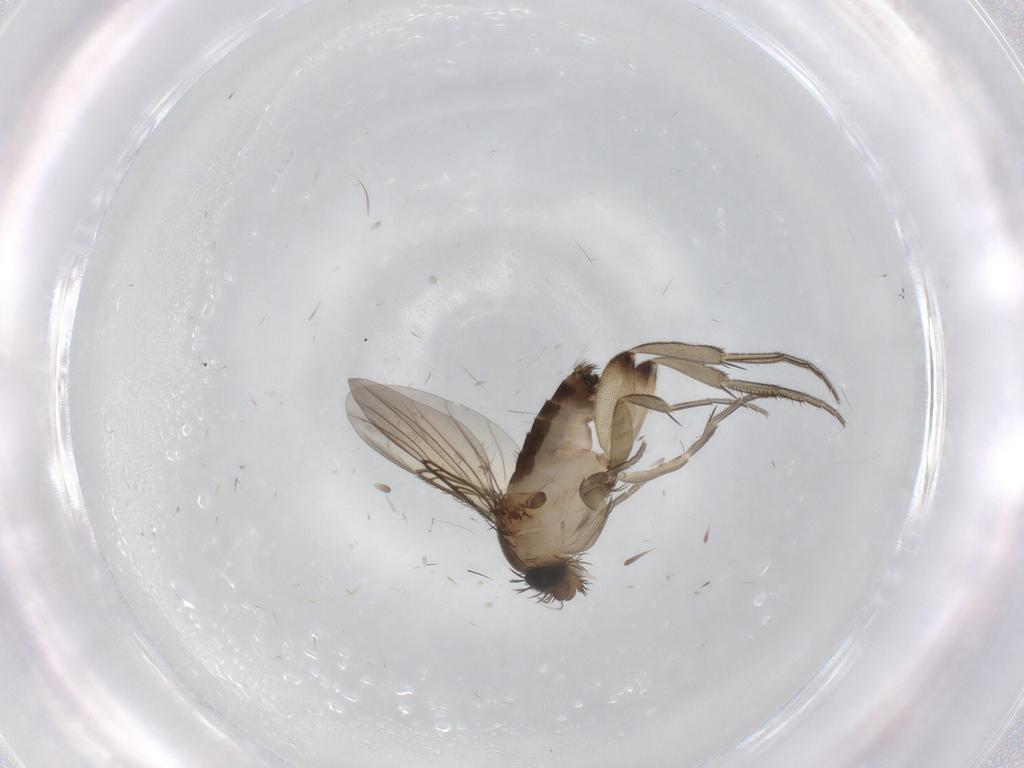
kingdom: Animalia
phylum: Arthropoda
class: Insecta
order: Diptera
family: Phoridae
